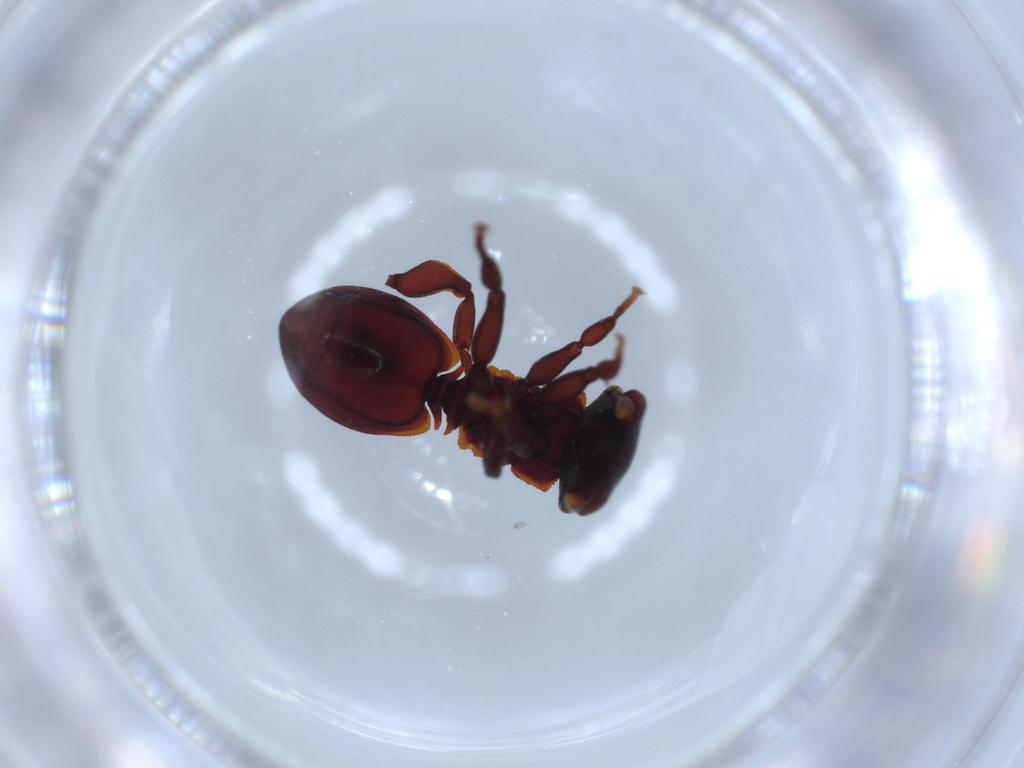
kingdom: Animalia
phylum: Arthropoda
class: Insecta
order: Hymenoptera
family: Formicidae
